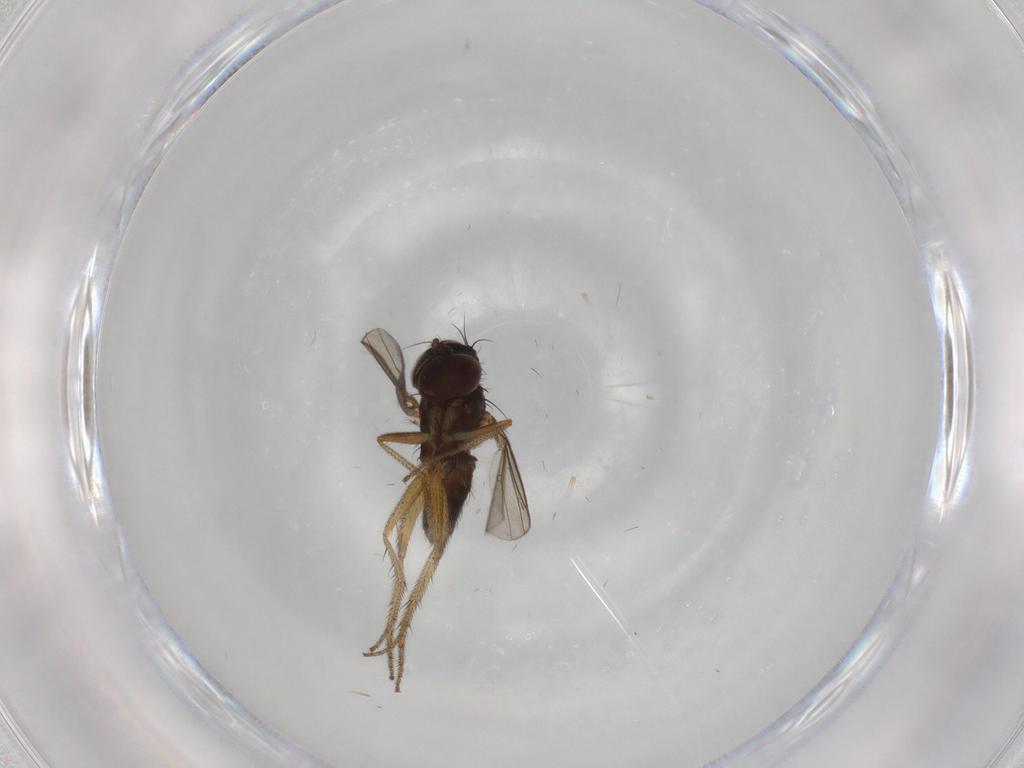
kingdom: Animalia
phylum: Arthropoda
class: Insecta
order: Diptera
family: Dolichopodidae
